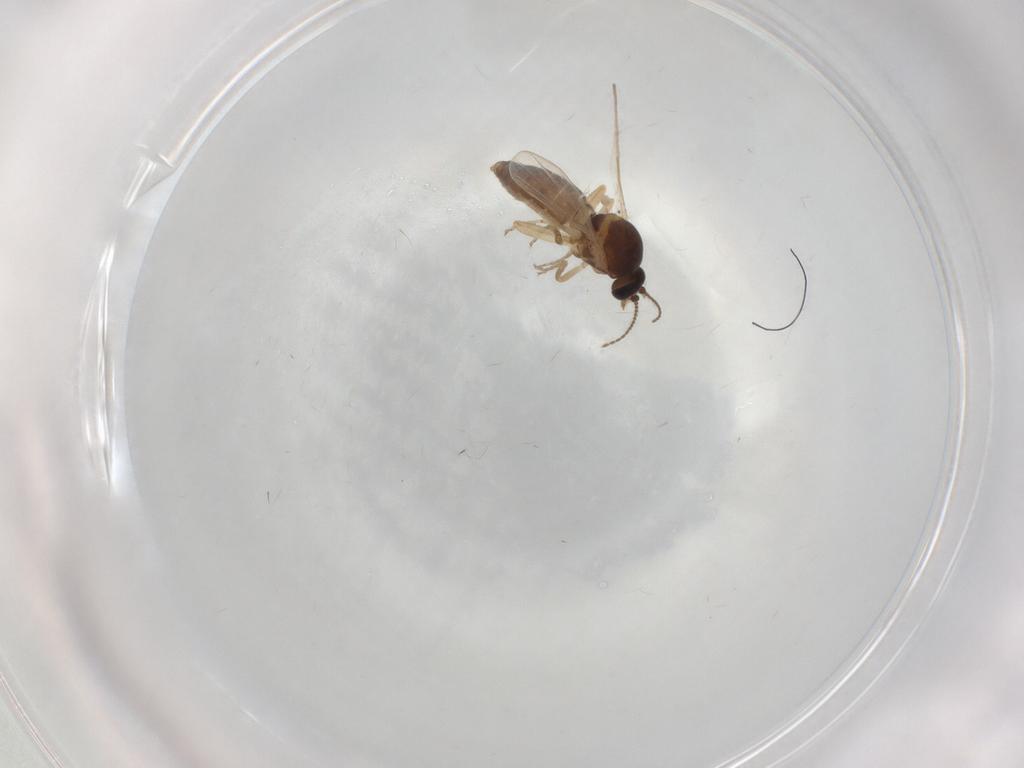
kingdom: Animalia
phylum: Arthropoda
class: Insecta
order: Diptera
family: Ceratopogonidae
